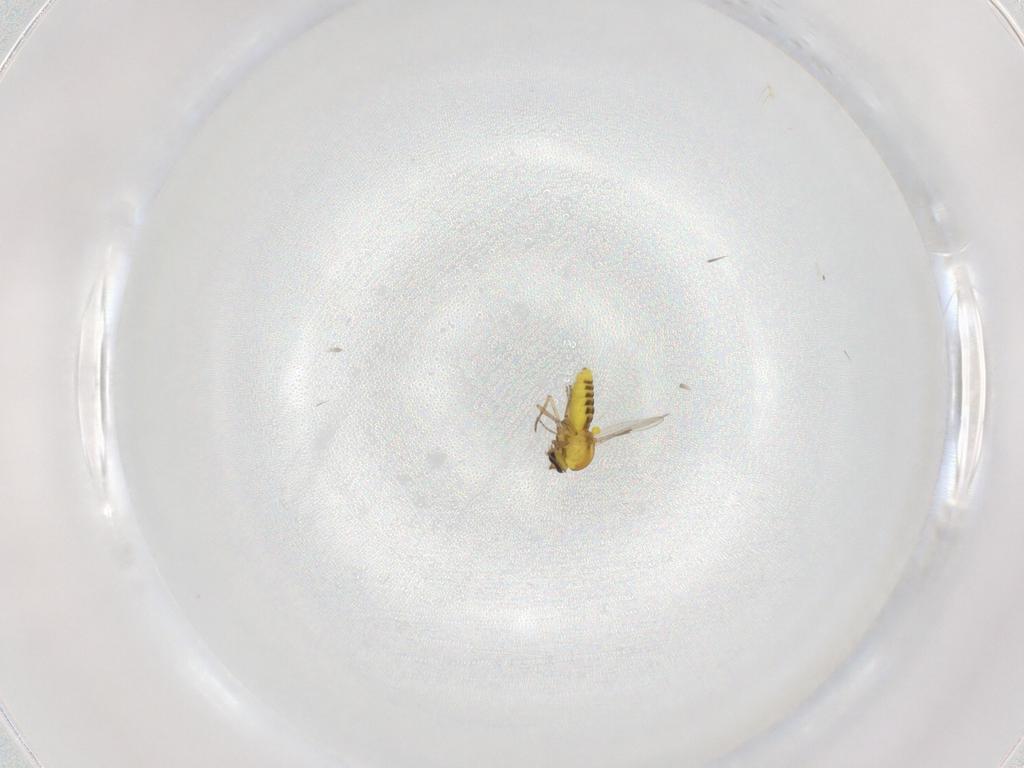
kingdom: Animalia
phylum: Arthropoda
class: Insecta
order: Diptera
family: Ceratopogonidae
